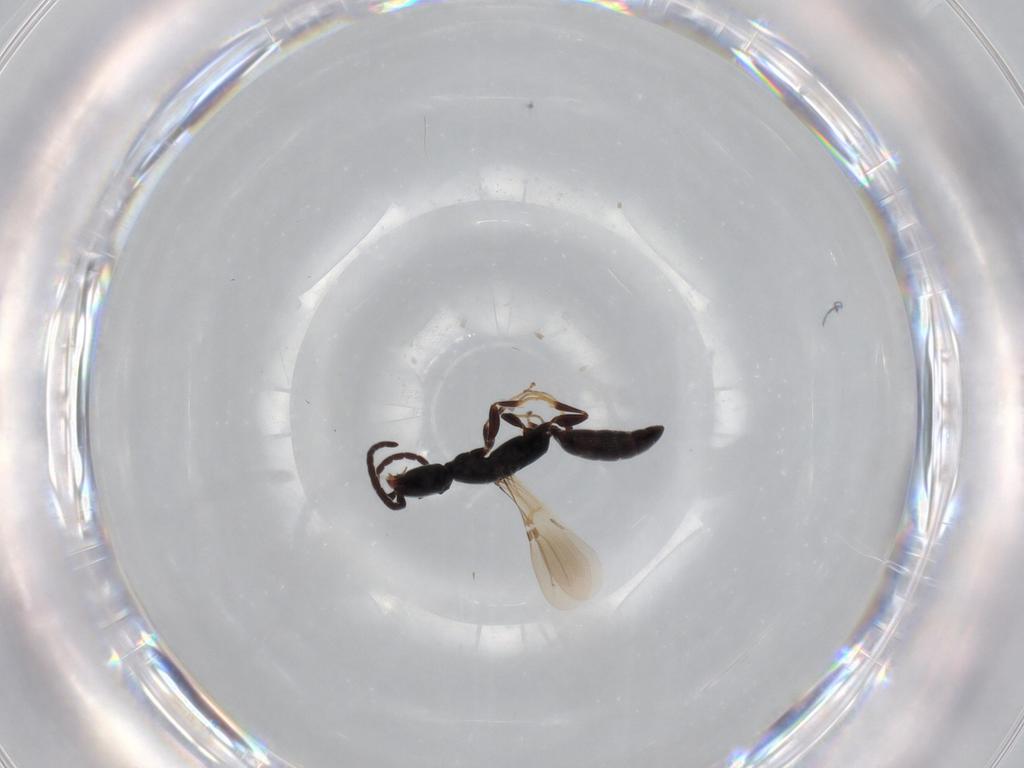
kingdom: Animalia
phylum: Arthropoda
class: Insecta
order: Hymenoptera
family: Bethylidae
